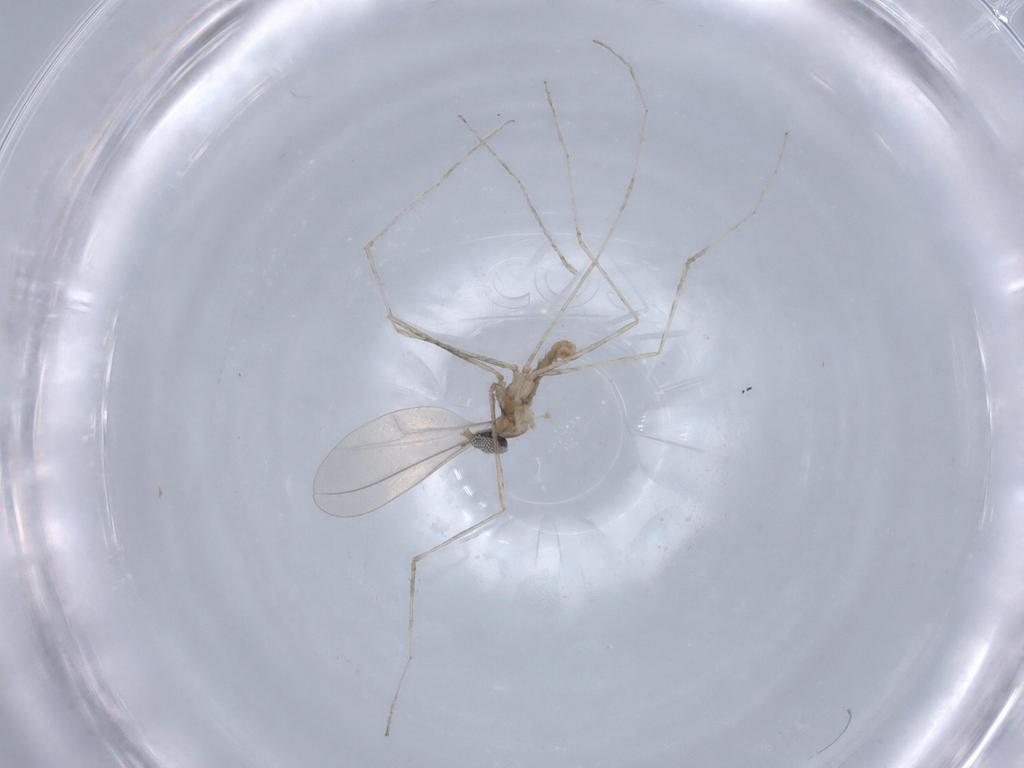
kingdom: Animalia
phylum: Arthropoda
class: Insecta
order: Diptera
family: Cecidomyiidae
